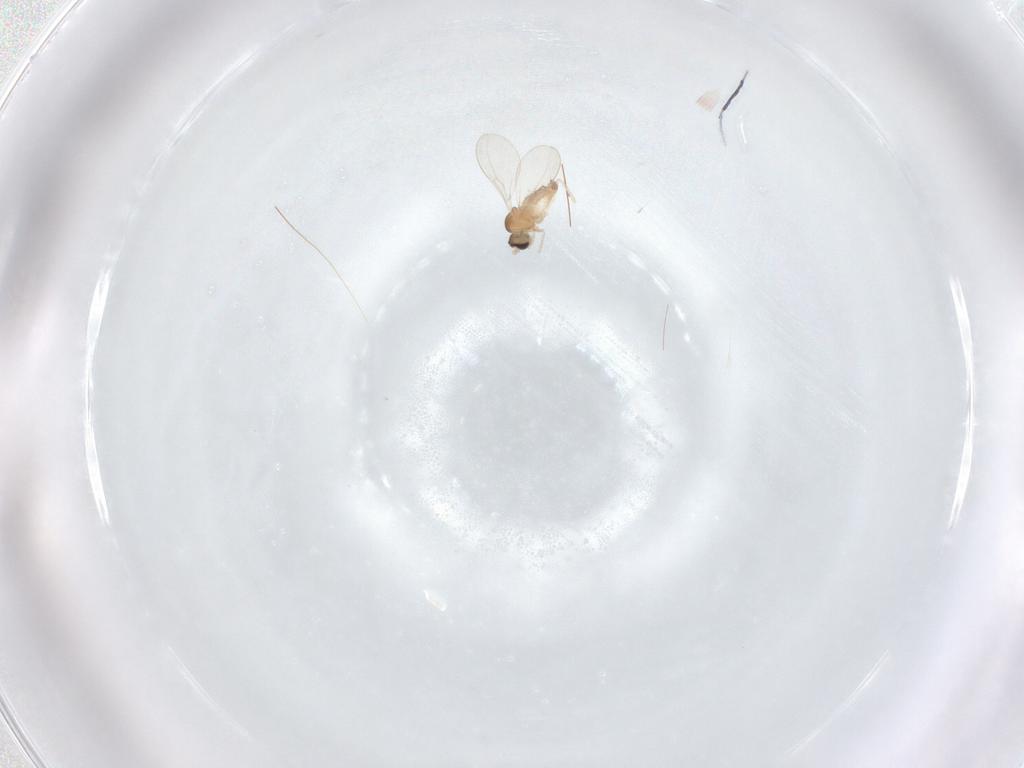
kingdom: Animalia
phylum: Arthropoda
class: Insecta
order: Diptera
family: Cecidomyiidae
